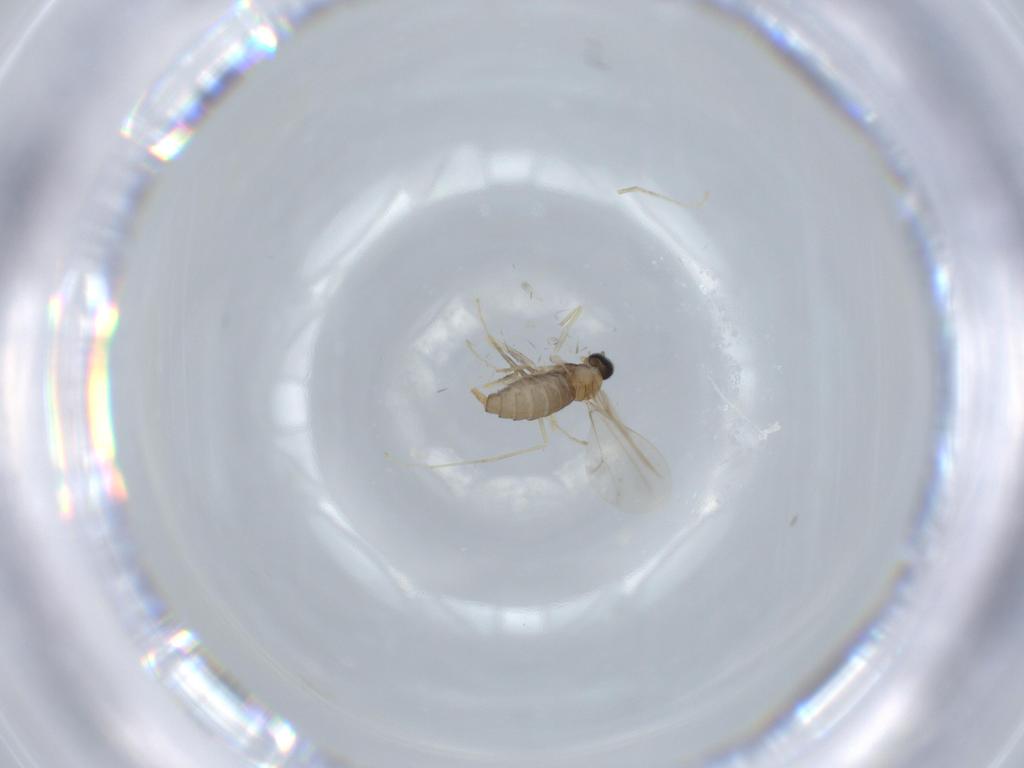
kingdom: Animalia
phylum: Arthropoda
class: Insecta
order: Diptera
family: Cecidomyiidae
